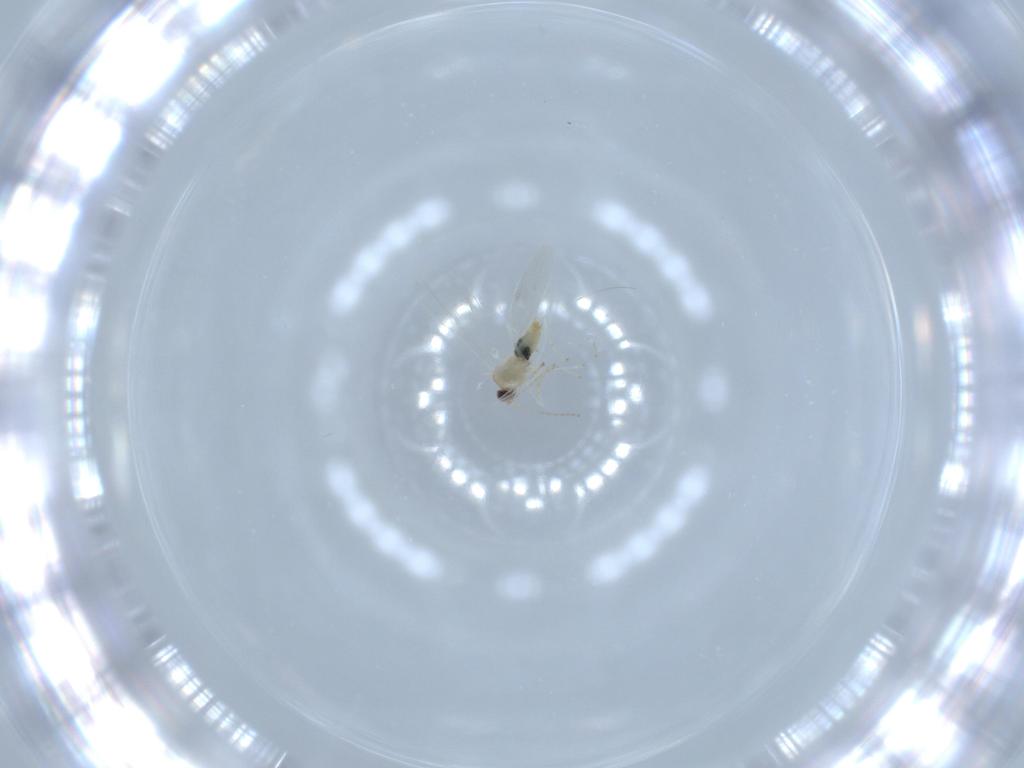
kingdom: Animalia
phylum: Arthropoda
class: Insecta
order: Diptera
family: Cecidomyiidae
